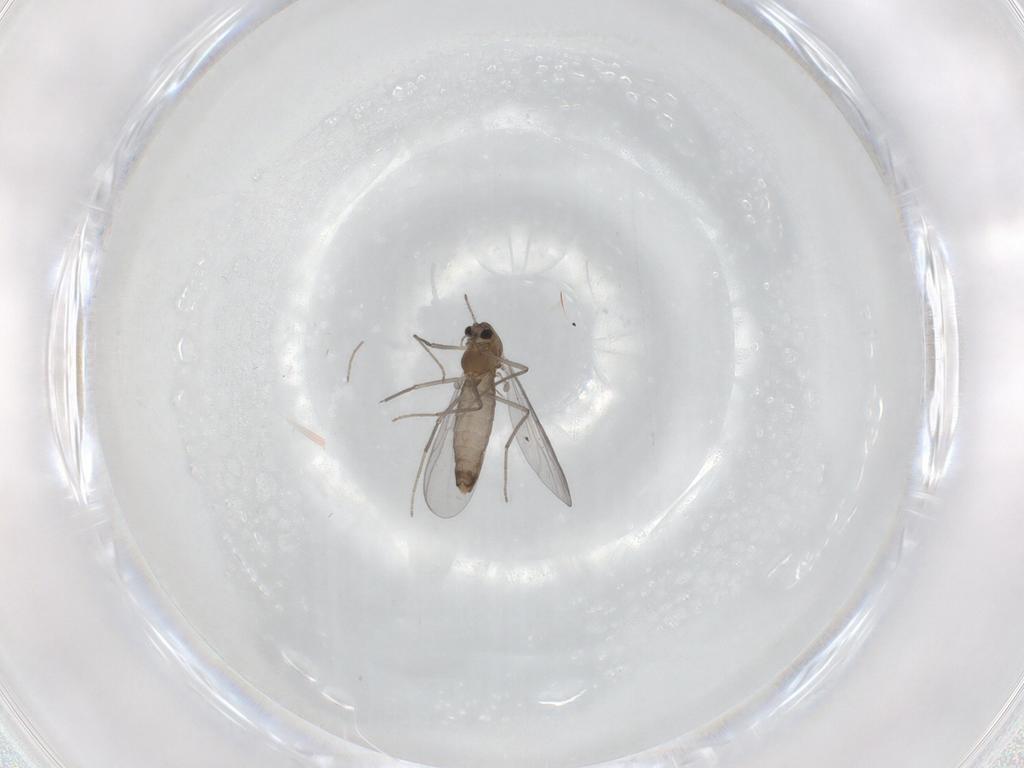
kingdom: Animalia
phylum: Arthropoda
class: Insecta
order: Diptera
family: Chironomidae
